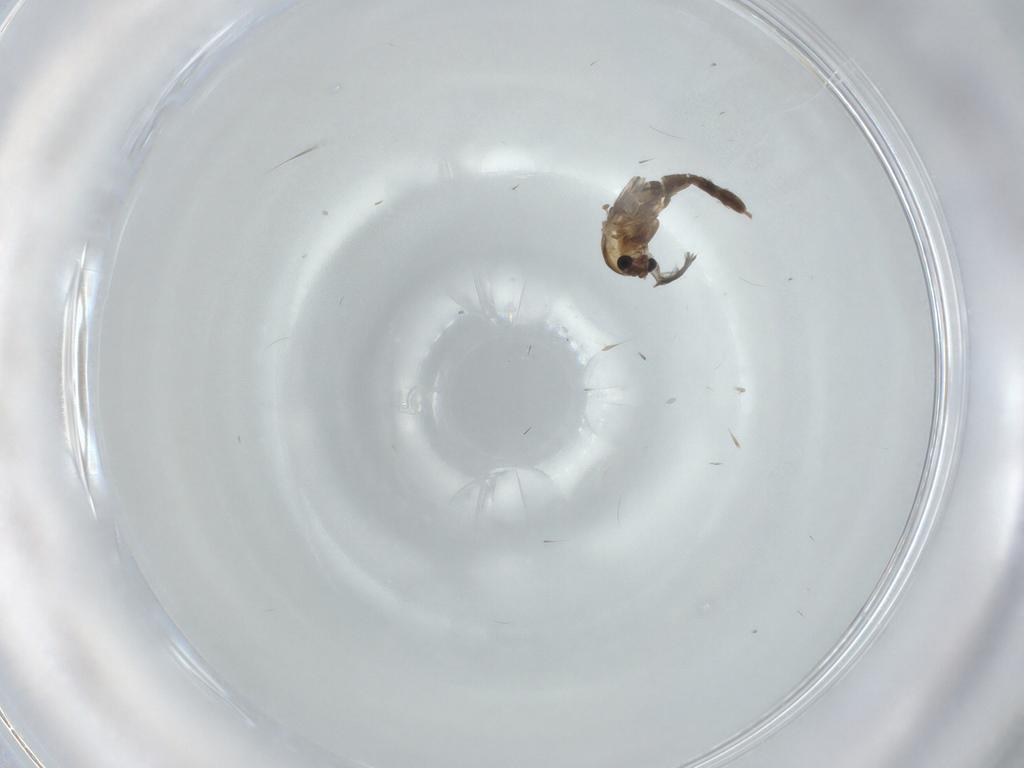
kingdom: Animalia
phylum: Arthropoda
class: Insecta
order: Diptera
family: Chironomidae
